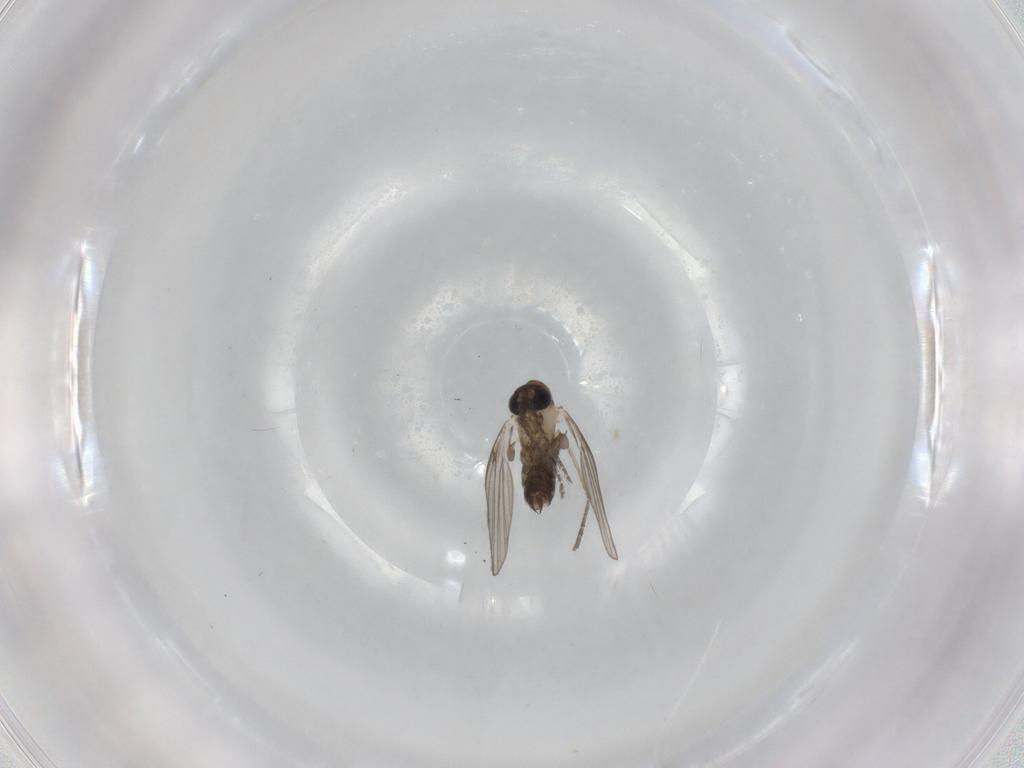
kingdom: Animalia
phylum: Arthropoda
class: Insecta
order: Diptera
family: Psychodidae
